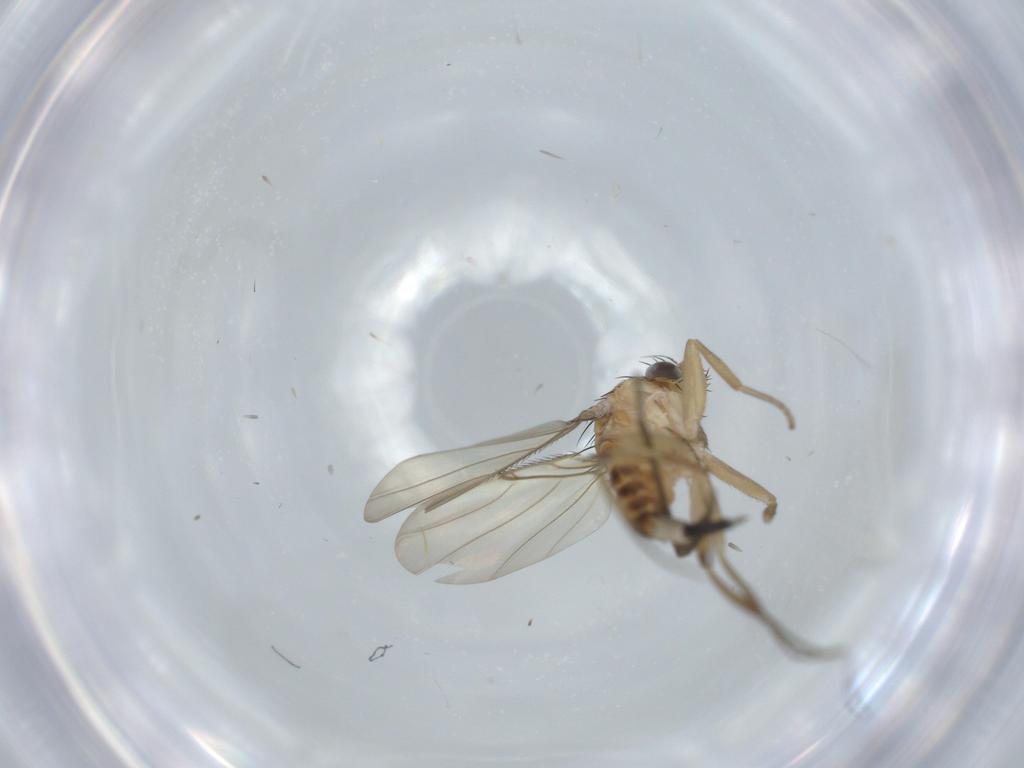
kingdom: Animalia
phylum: Arthropoda
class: Insecta
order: Diptera
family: Phoridae
